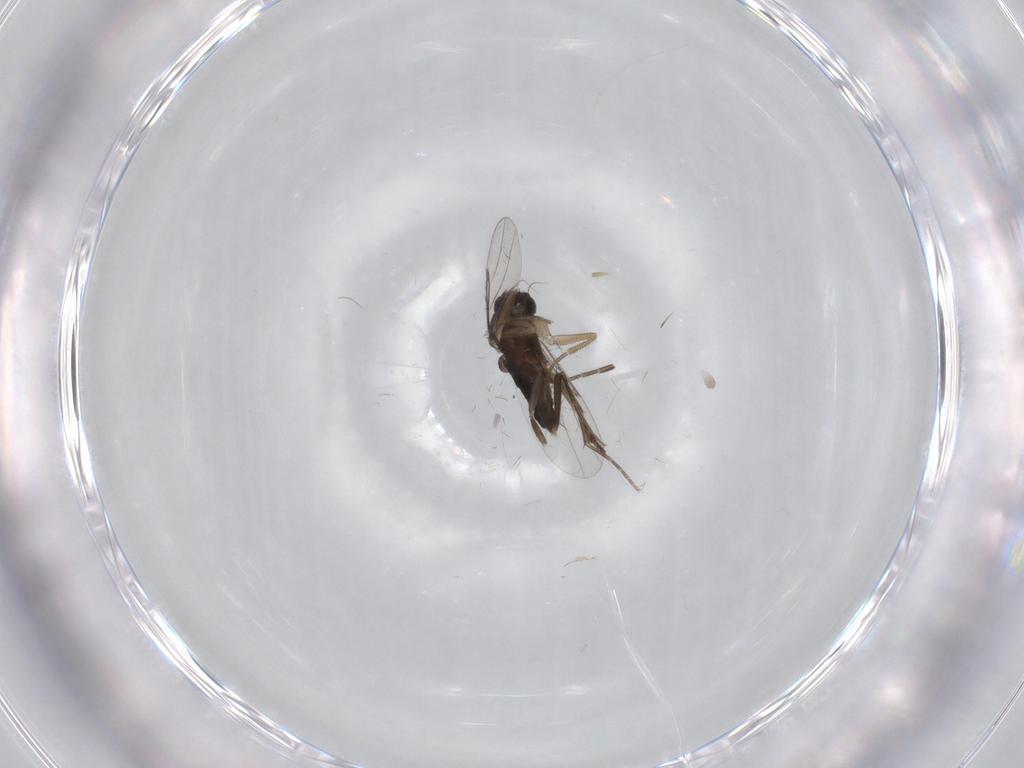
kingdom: Animalia
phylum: Arthropoda
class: Insecta
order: Diptera
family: Phoridae
